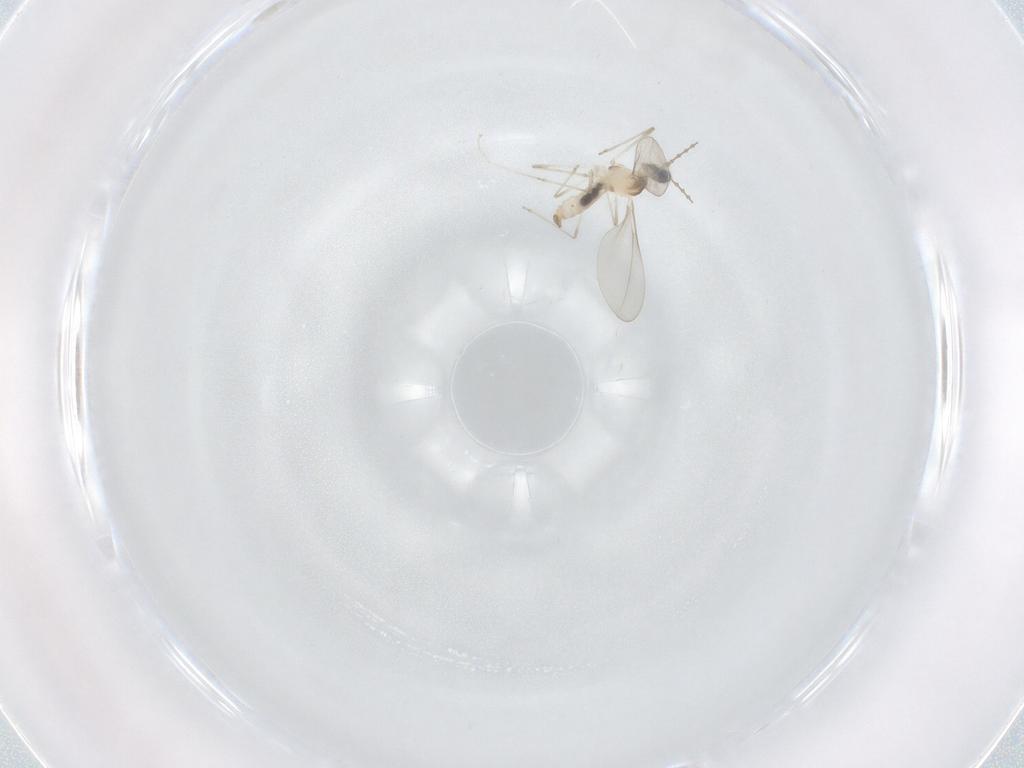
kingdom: Animalia
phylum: Arthropoda
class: Insecta
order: Diptera
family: Cecidomyiidae
